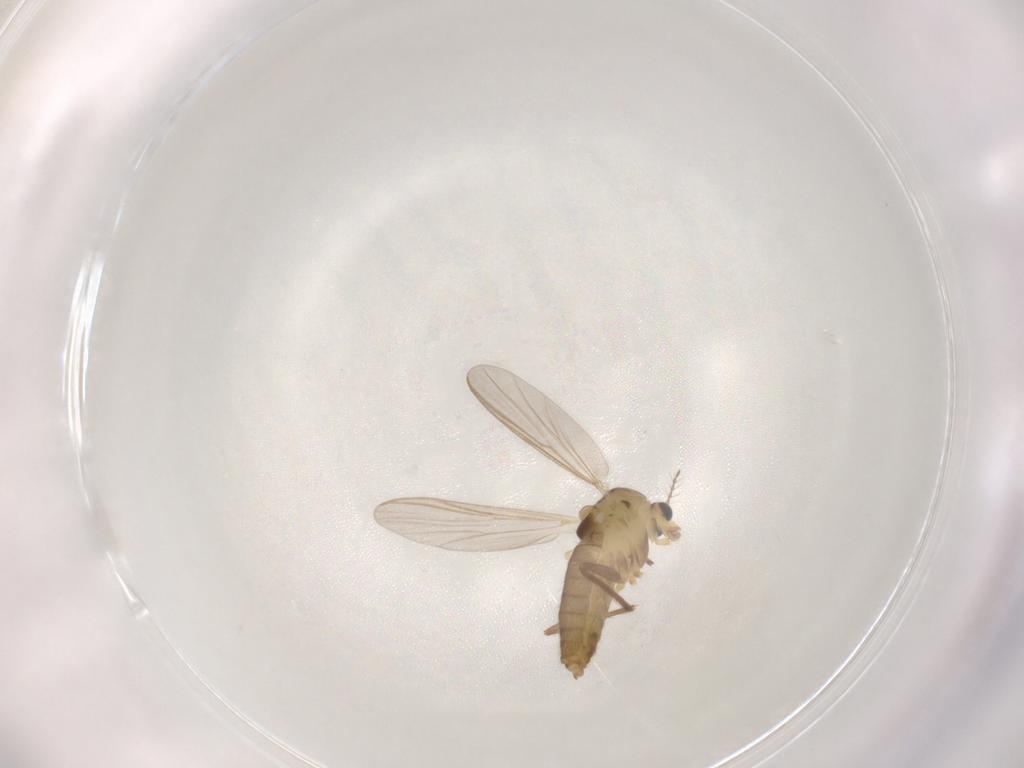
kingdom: Animalia
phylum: Arthropoda
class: Insecta
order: Diptera
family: Chironomidae
